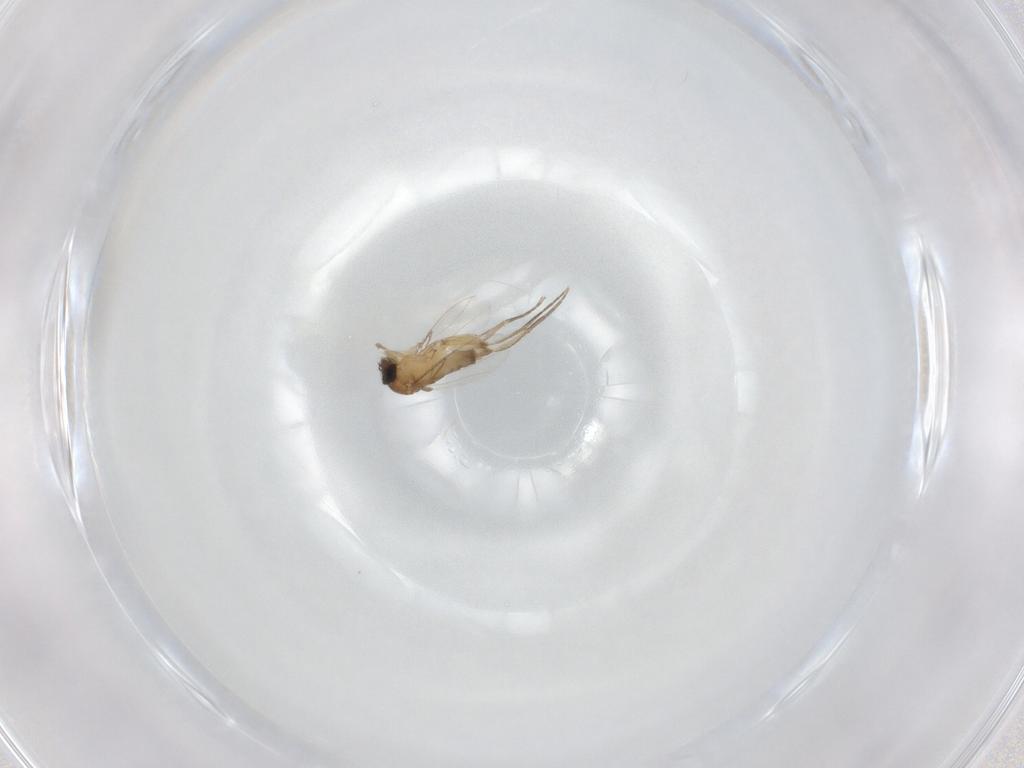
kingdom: Animalia
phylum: Arthropoda
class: Insecta
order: Diptera
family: Phoridae
